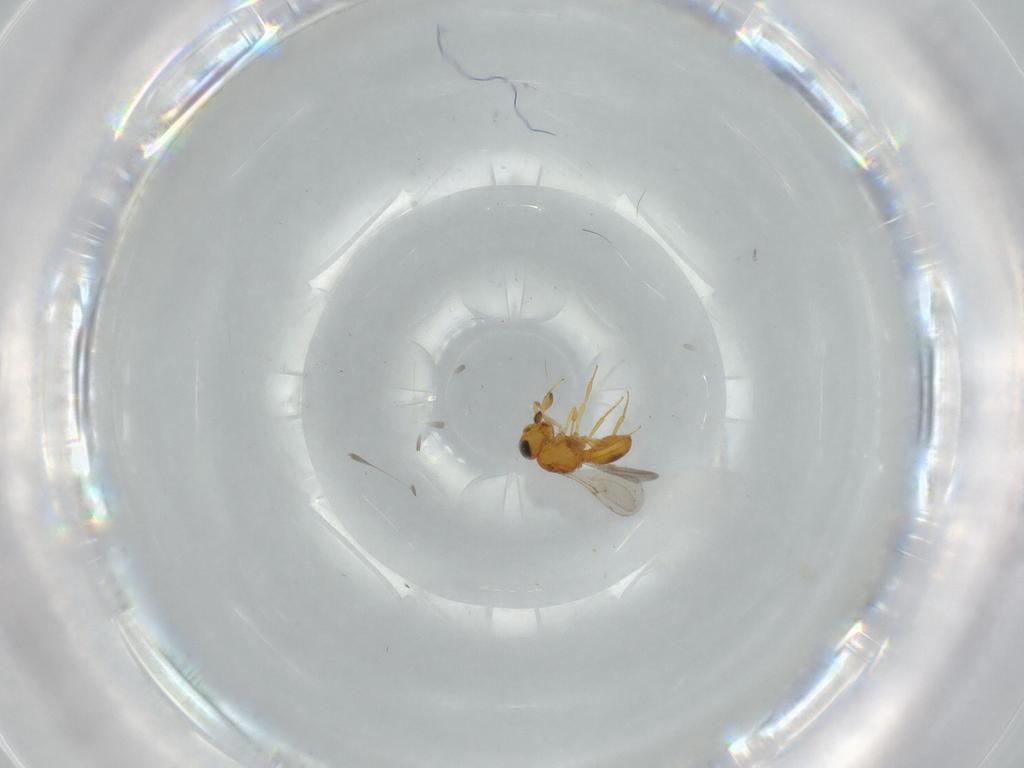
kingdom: Animalia
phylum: Arthropoda
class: Insecta
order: Hymenoptera
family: Scelionidae
